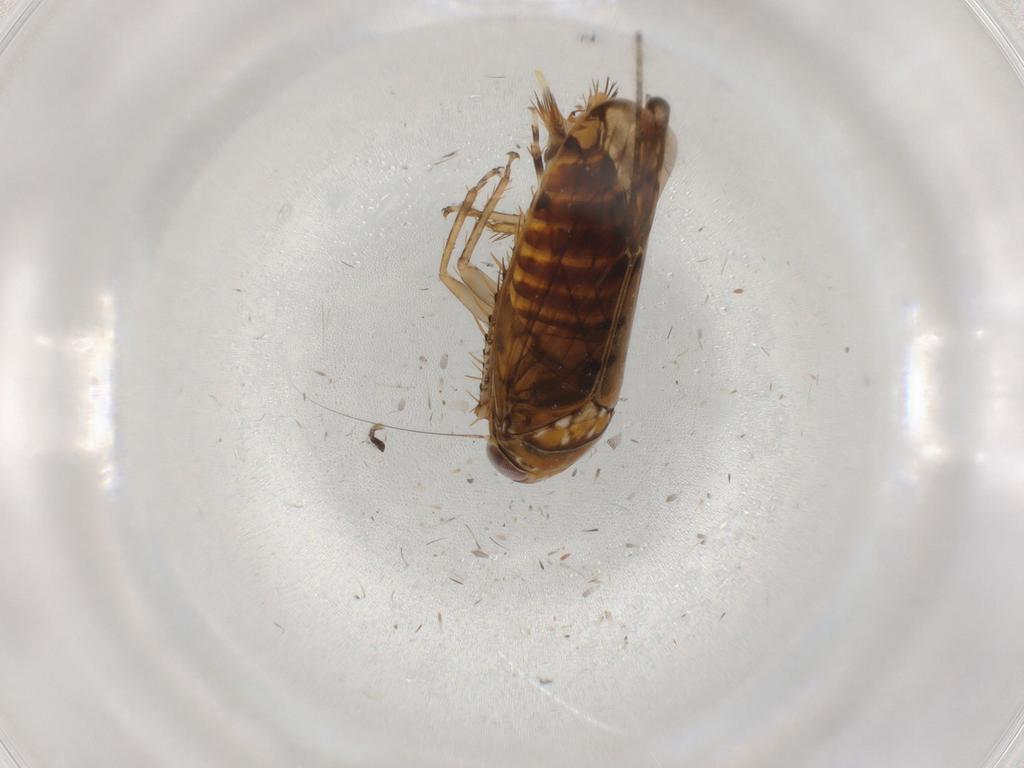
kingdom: Animalia
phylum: Arthropoda
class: Insecta
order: Hemiptera
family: Cicadellidae
